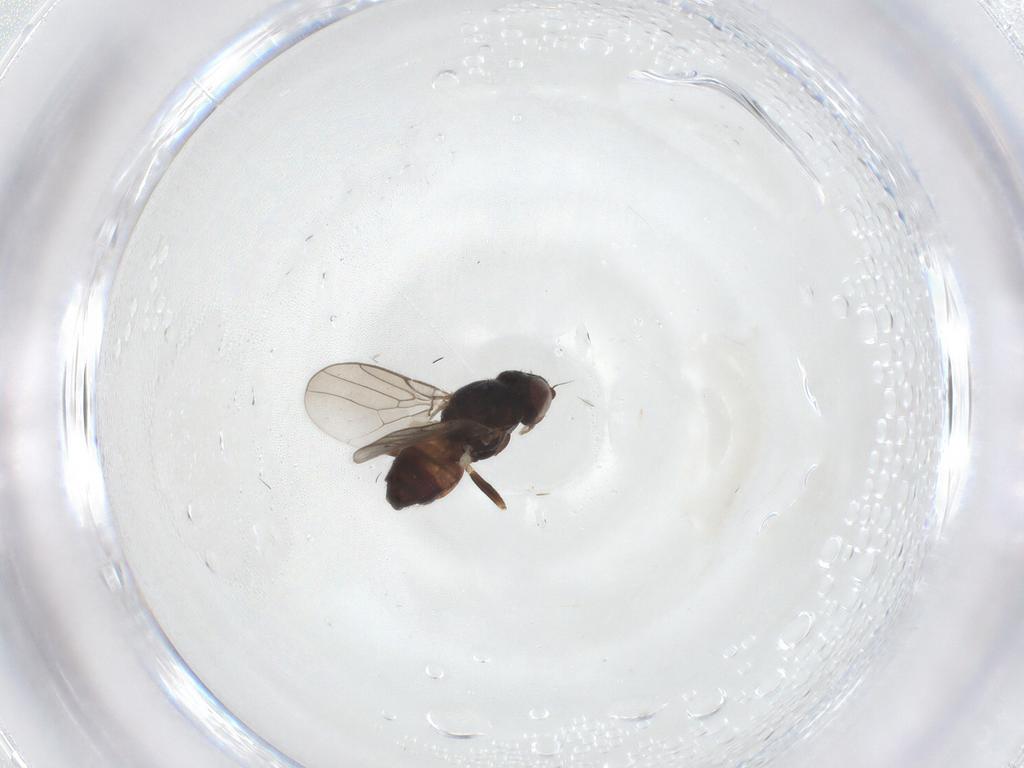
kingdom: Animalia
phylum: Arthropoda
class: Insecta
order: Diptera
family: Chloropidae
